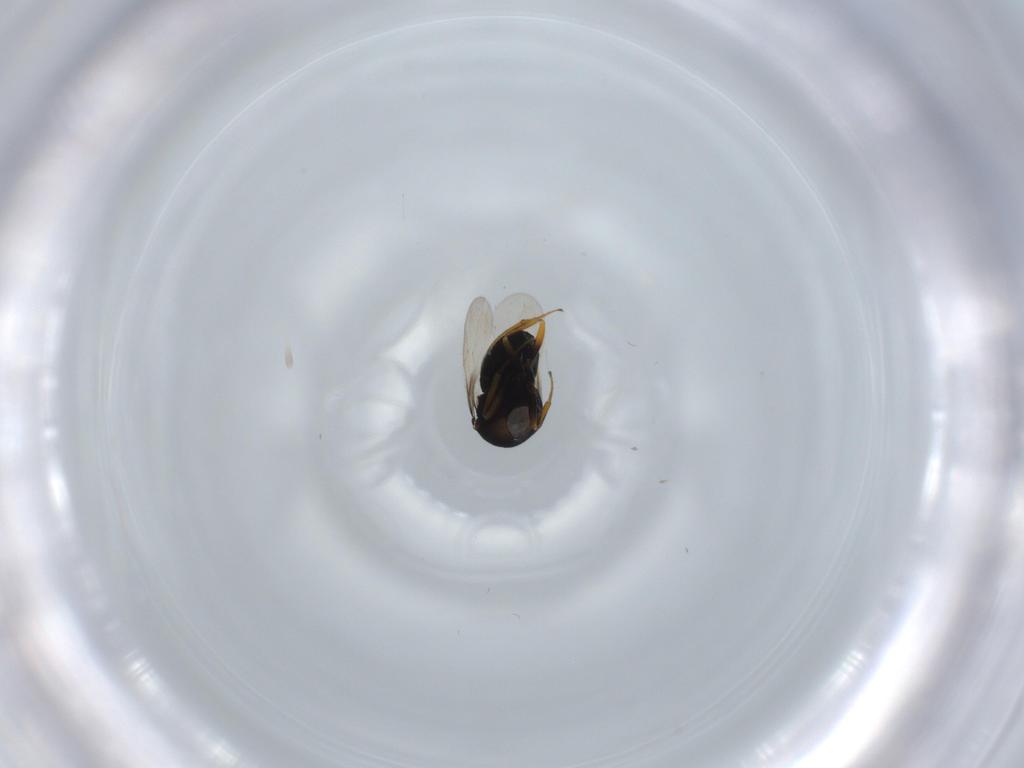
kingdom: Animalia
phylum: Arthropoda
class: Insecta
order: Hymenoptera
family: Scelionidae
